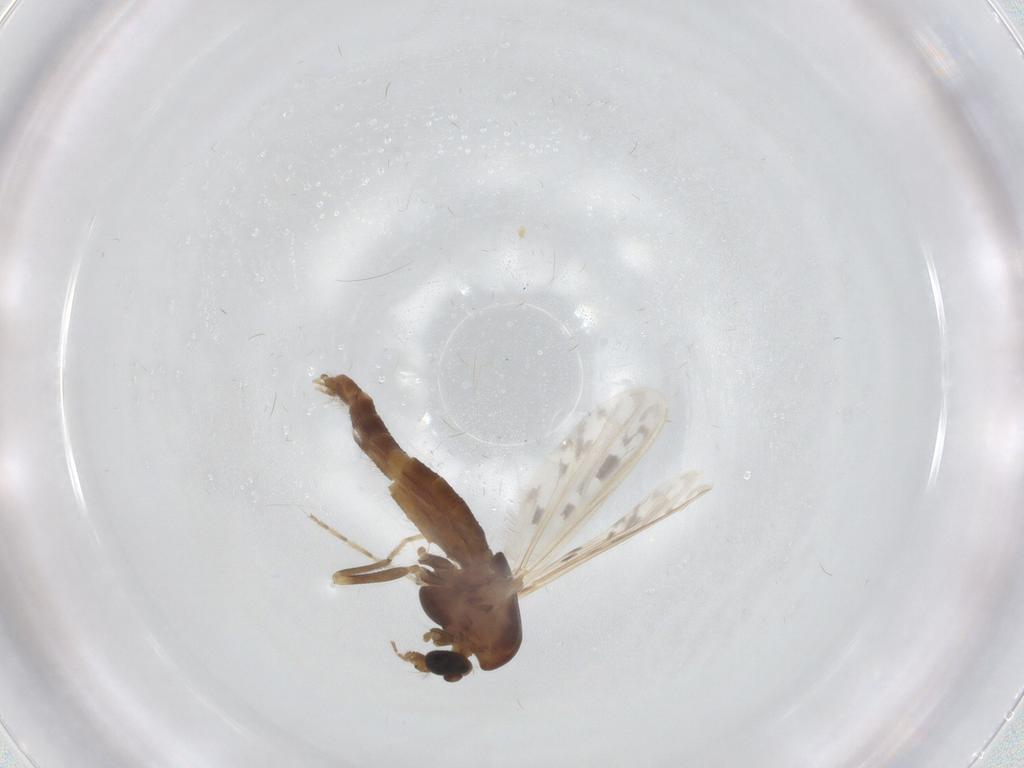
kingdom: Animalia
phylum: Arthropoda
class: Insecta
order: Diptera
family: Chironomidae
